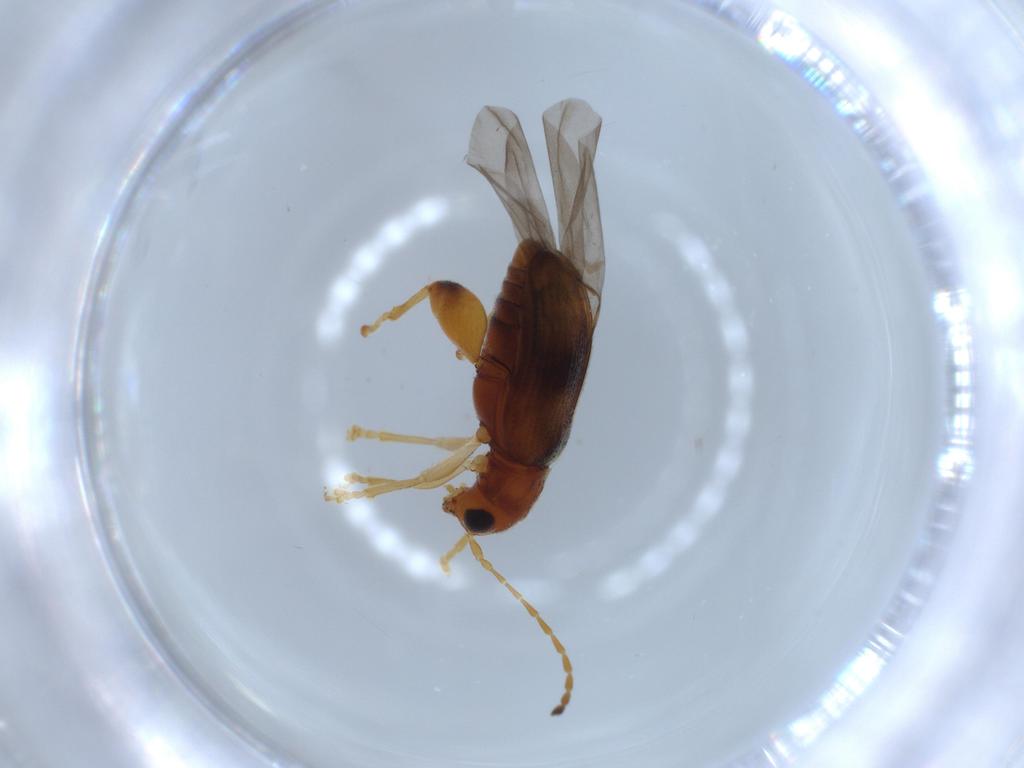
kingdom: Animalia
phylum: Arthropoda
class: Insecta
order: Coleoptera
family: Chrysomelidae
